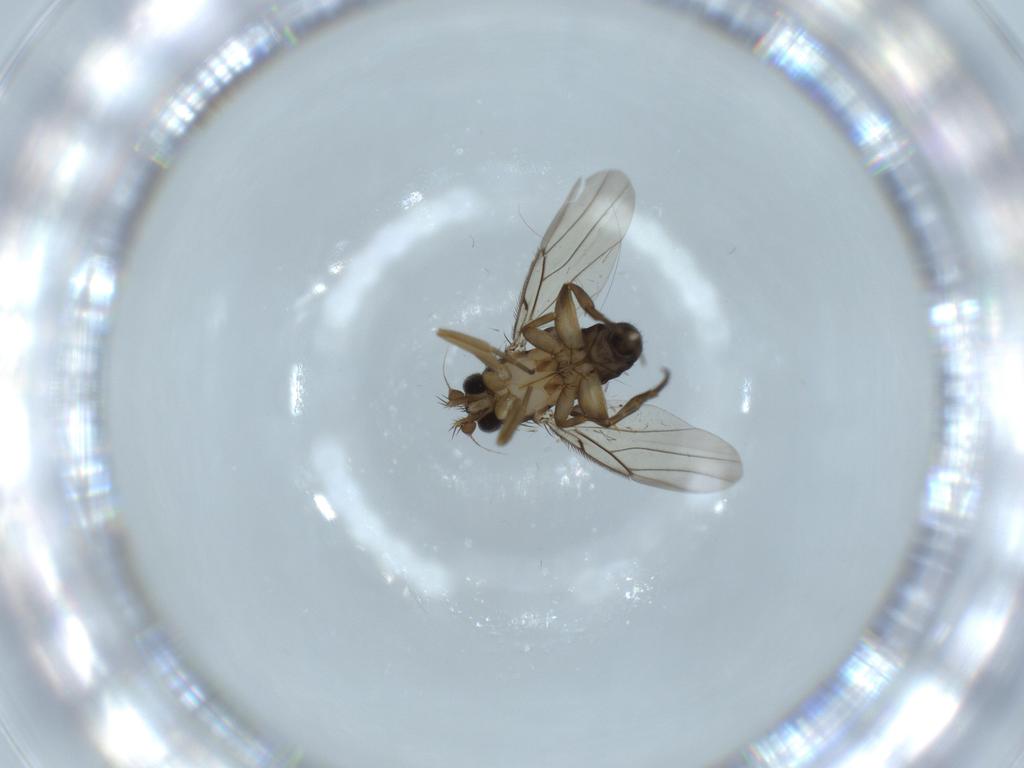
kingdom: Animalia
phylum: Arthropoda
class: Insecta
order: Diptera
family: Phoridae
